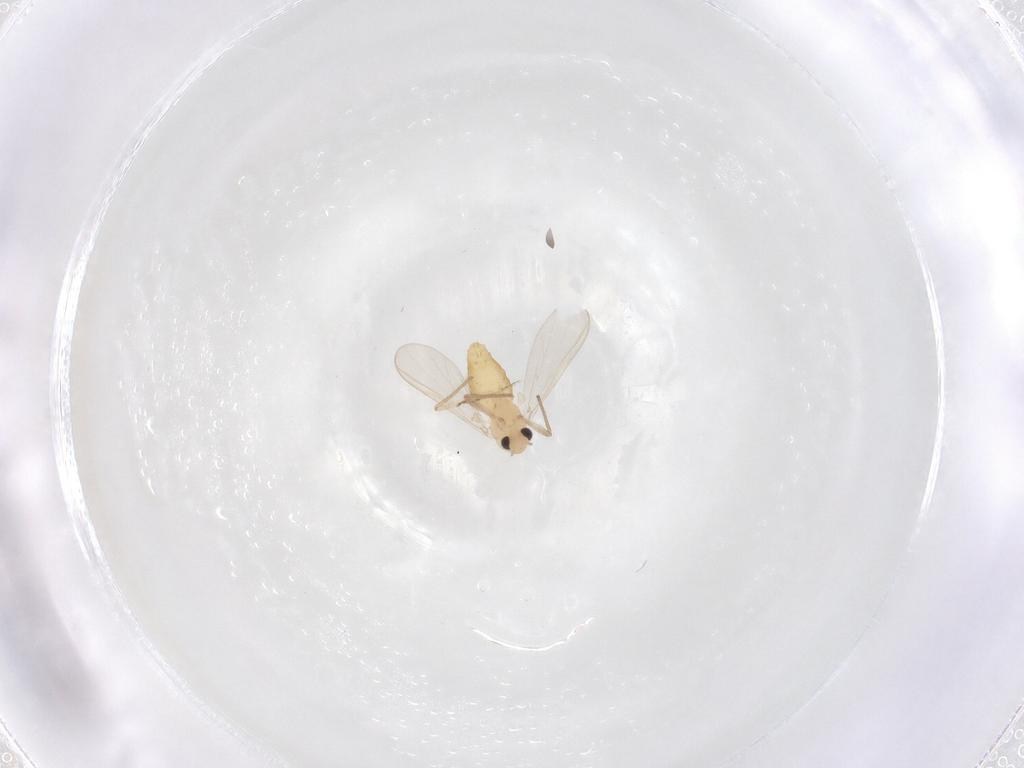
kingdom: Animalia
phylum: Arthropoda
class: Insecta
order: Diptera
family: Chironomidae
